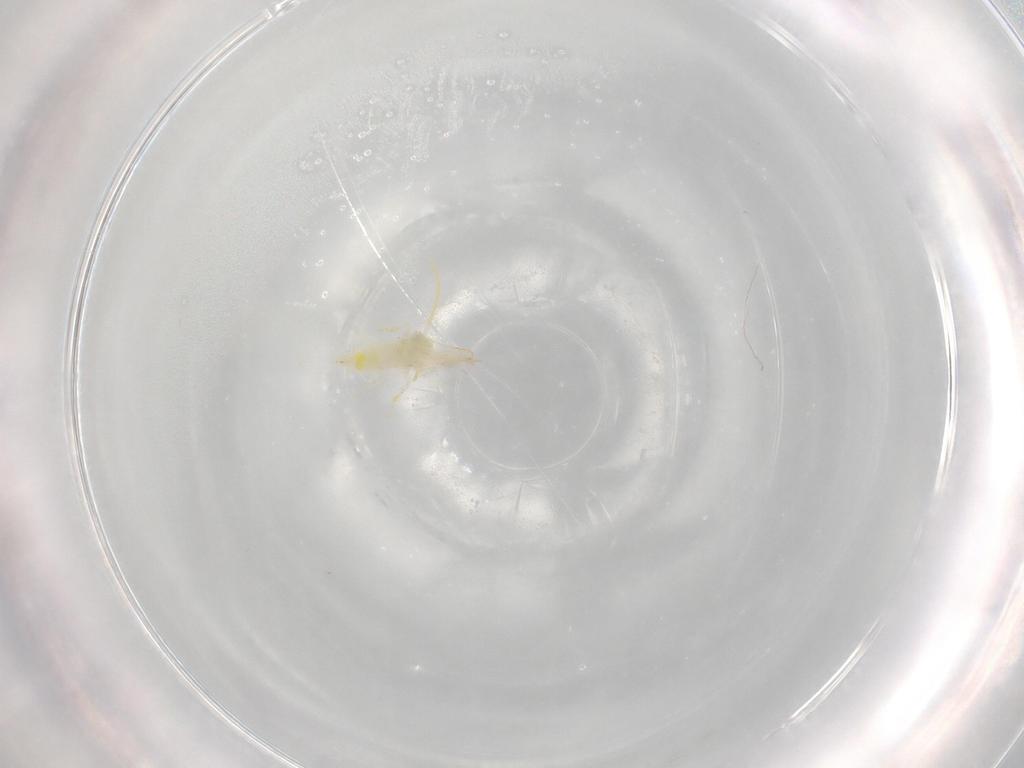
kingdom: Animalia
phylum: Arthropoda
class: Insecta
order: Hemiptera
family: Aleyrodidae
